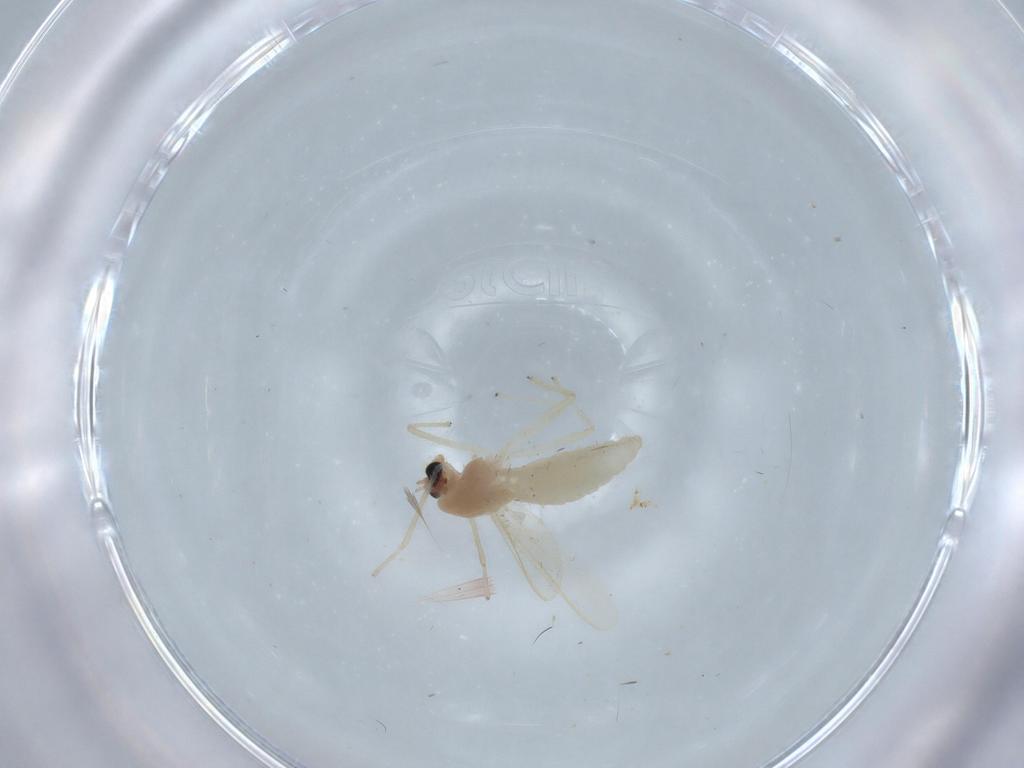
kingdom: Animalia
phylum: Arthropoda
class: Insecta
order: Diptera
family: Chironomidae
